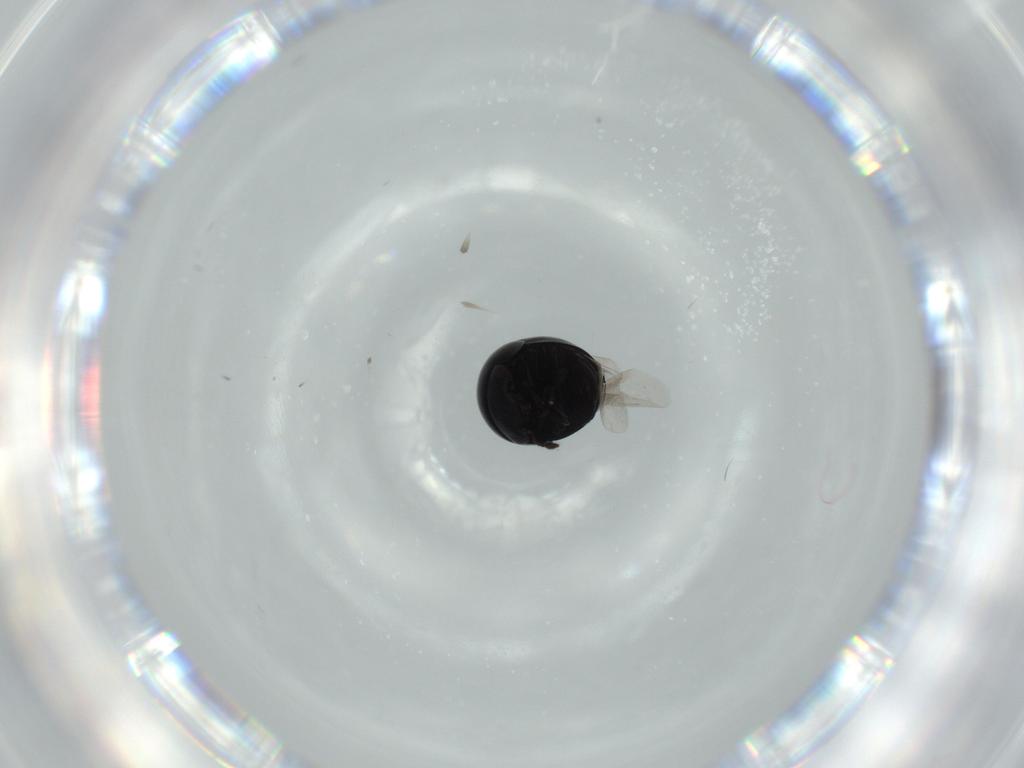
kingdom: Animalia
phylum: Arthropoda
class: Insecta
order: Coleoptera
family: Cybocephalidae
